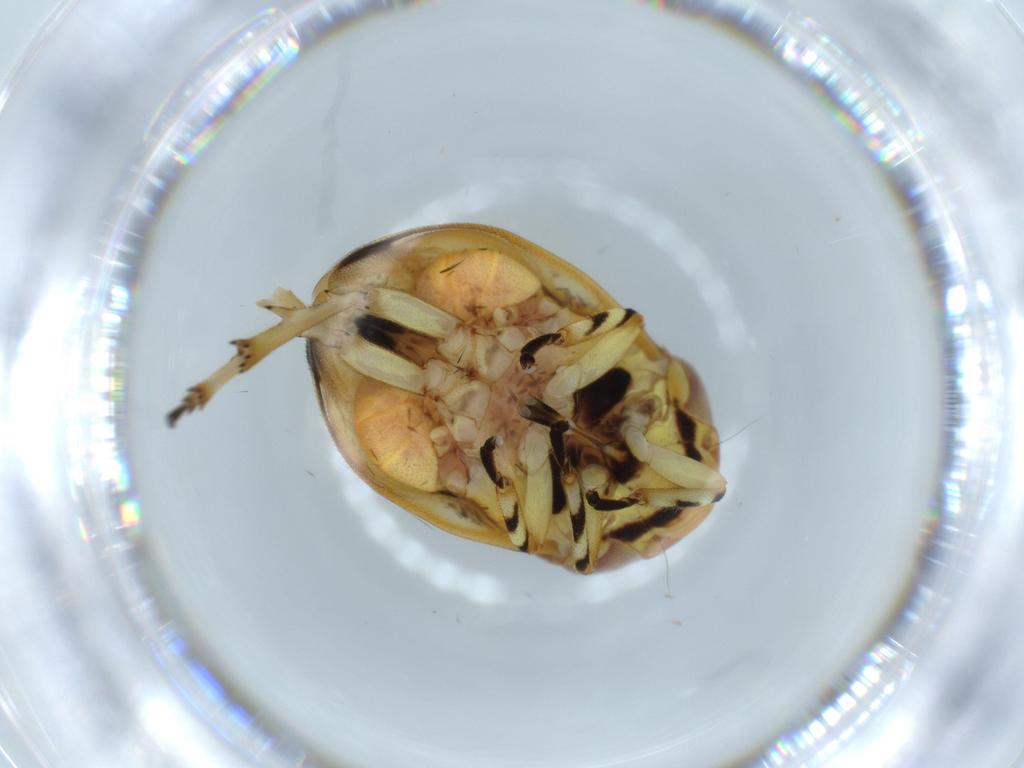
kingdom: Animalia
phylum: Arthropoda
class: Insecta
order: Hemiptera
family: Clastopteridae
